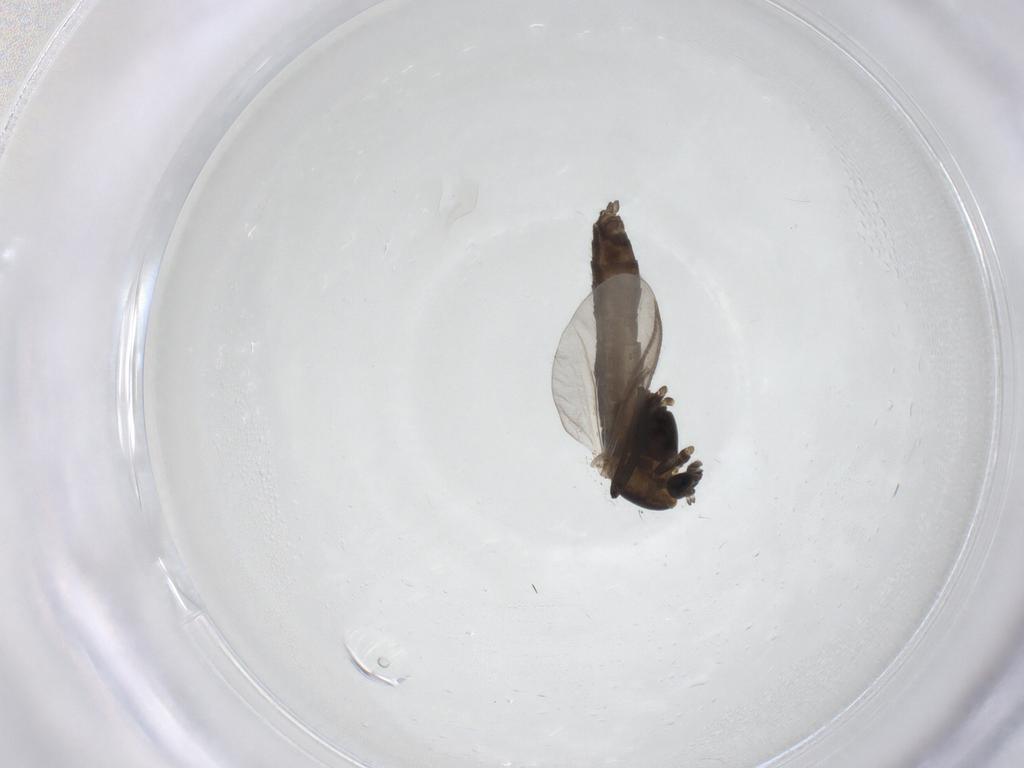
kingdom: Animalia
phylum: Arthropoda
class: Insecta
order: Diptera
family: Chironomidae
